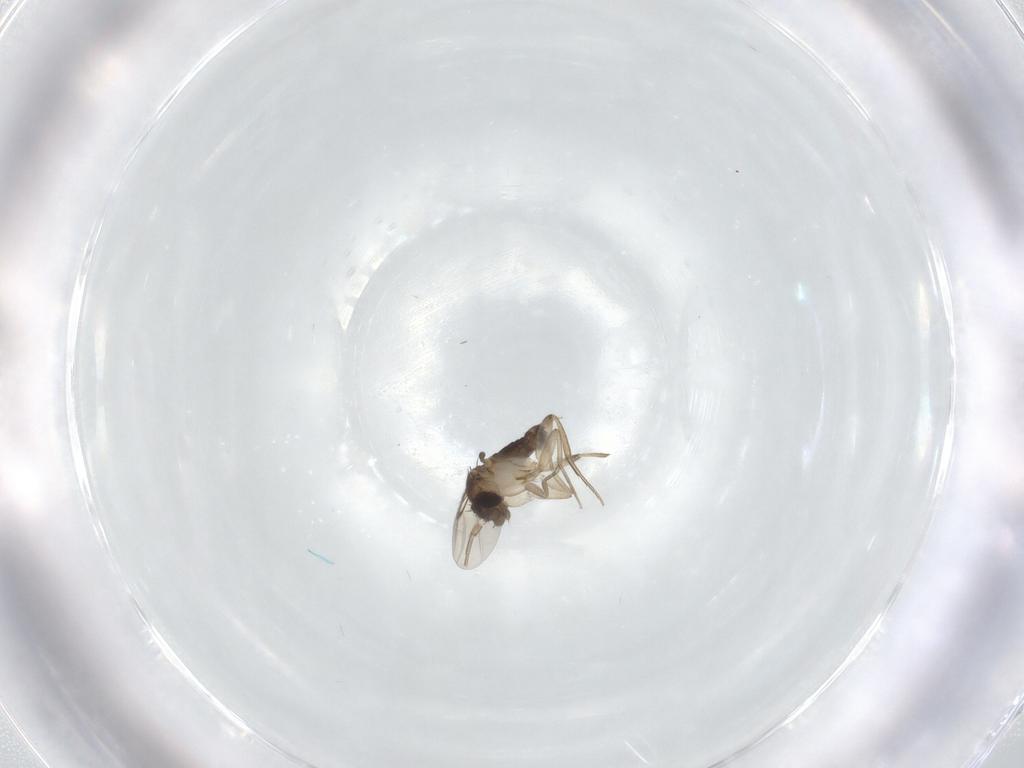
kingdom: Animalia
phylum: Arthropoda
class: Insecta
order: Diptera
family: Phoridae
